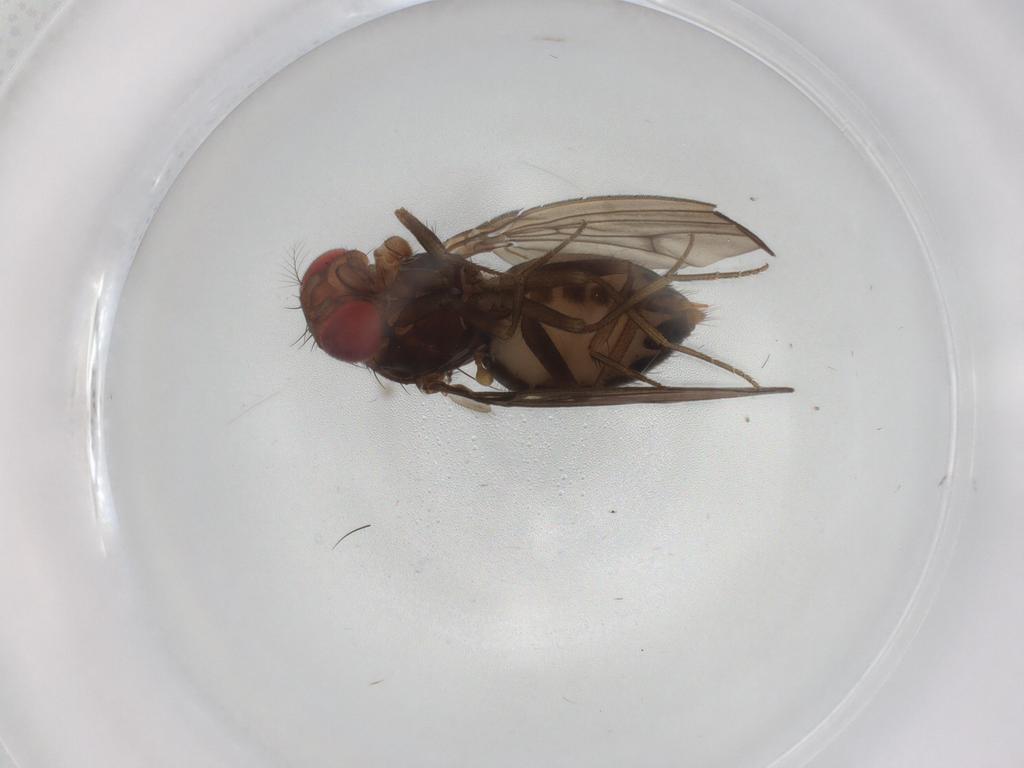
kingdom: Animalia
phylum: Arthropoda
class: Insecta
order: Diptera
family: Drosophilidae
